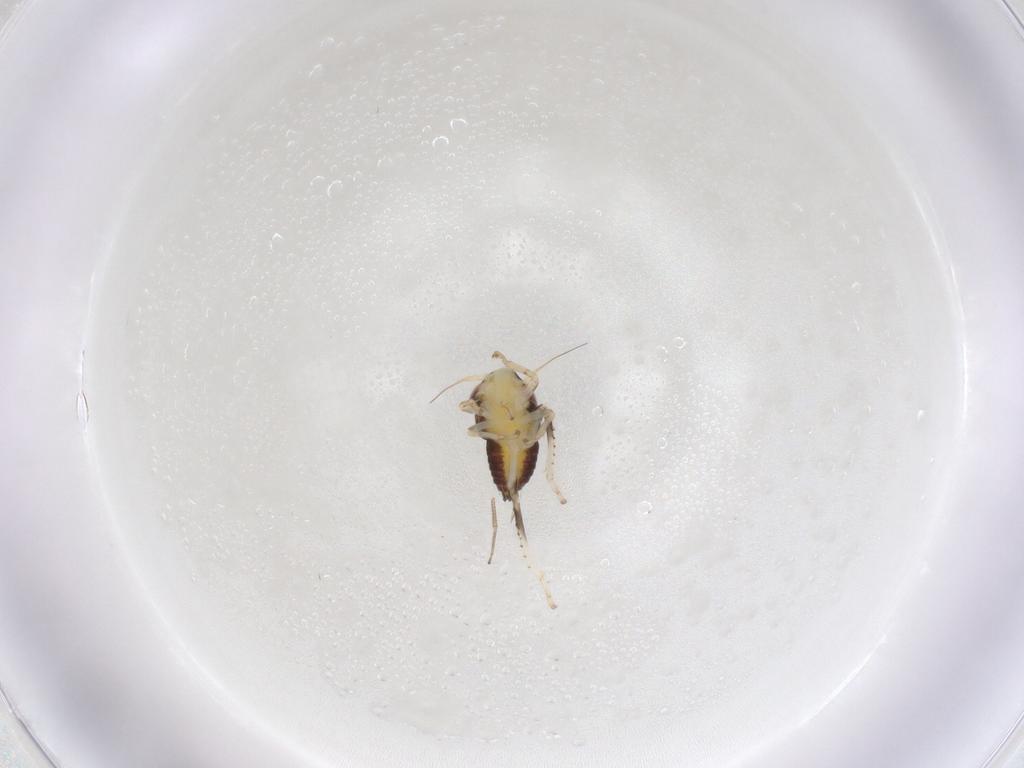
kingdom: Animalia
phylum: Arthropoda
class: Insecta
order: Hemiptera
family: Cicadellidae
